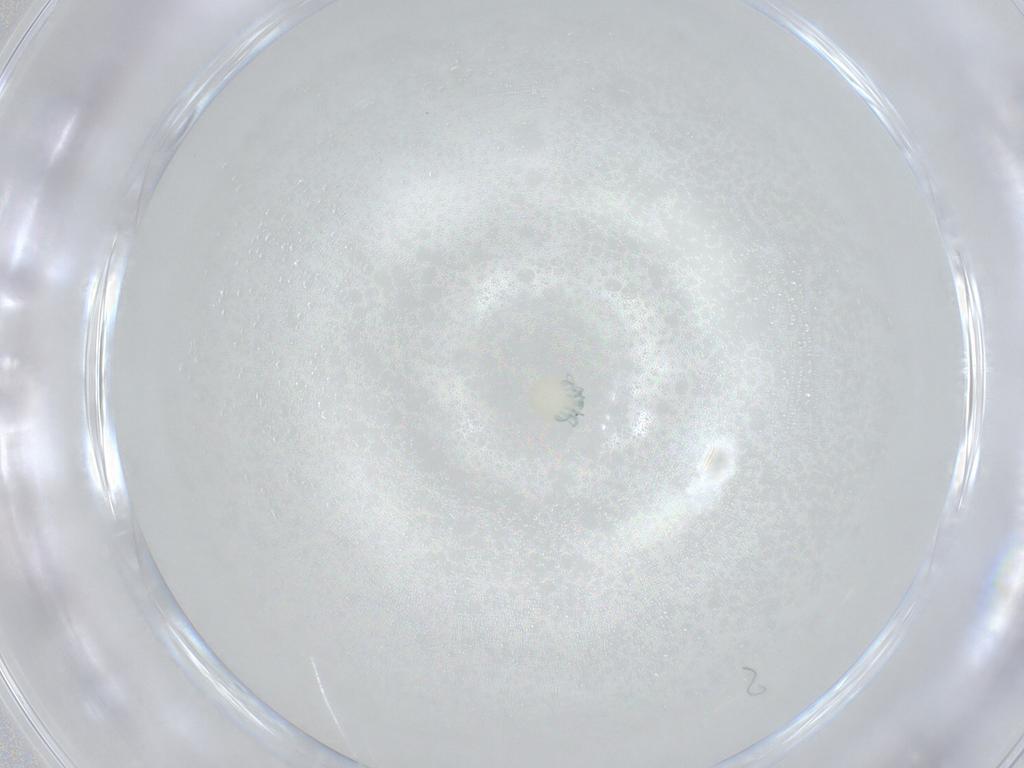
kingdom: Animalia
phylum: Arthropoda
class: Arachnida
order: Trombidiformes
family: Arrenuridae
